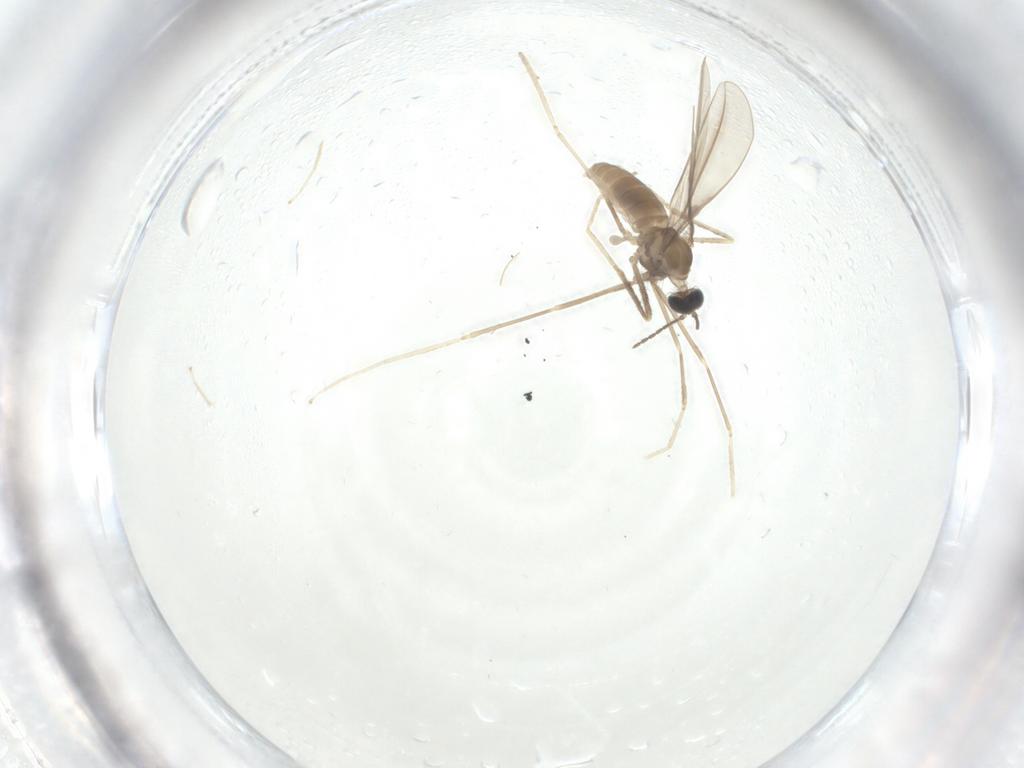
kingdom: Animalia
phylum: Arthropoda
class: Insecta
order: Diptera
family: Cecidomyiidae
